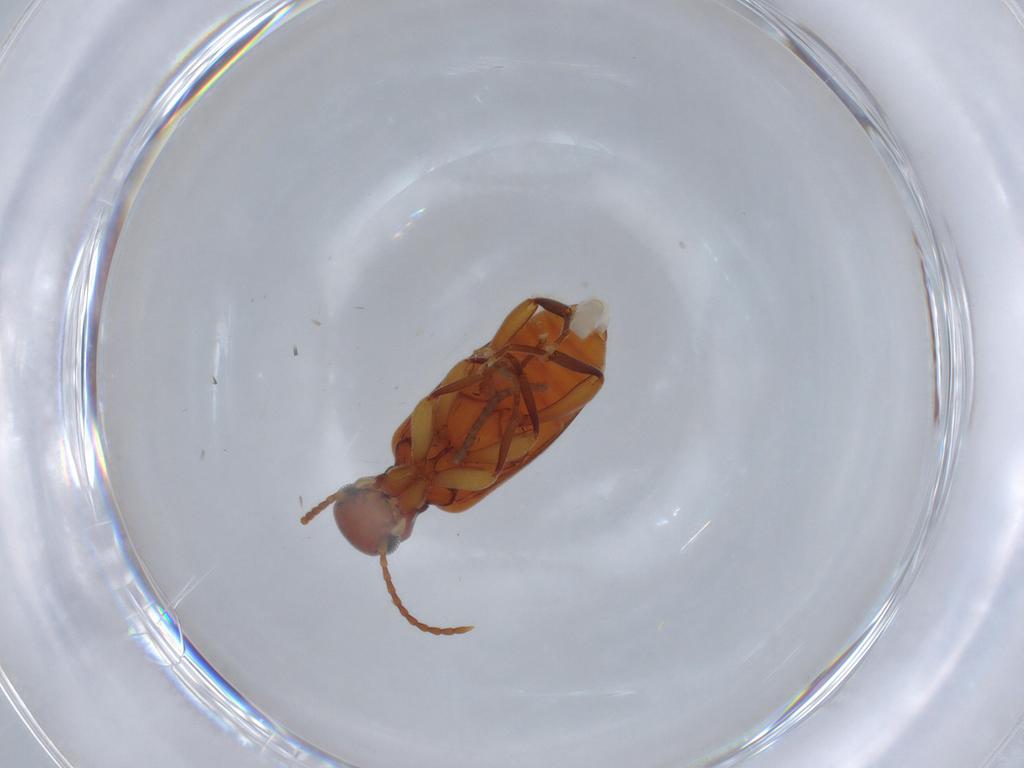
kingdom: Animalia
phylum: Arthropoda
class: Insecta
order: Coleoptera
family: Anthicidae
